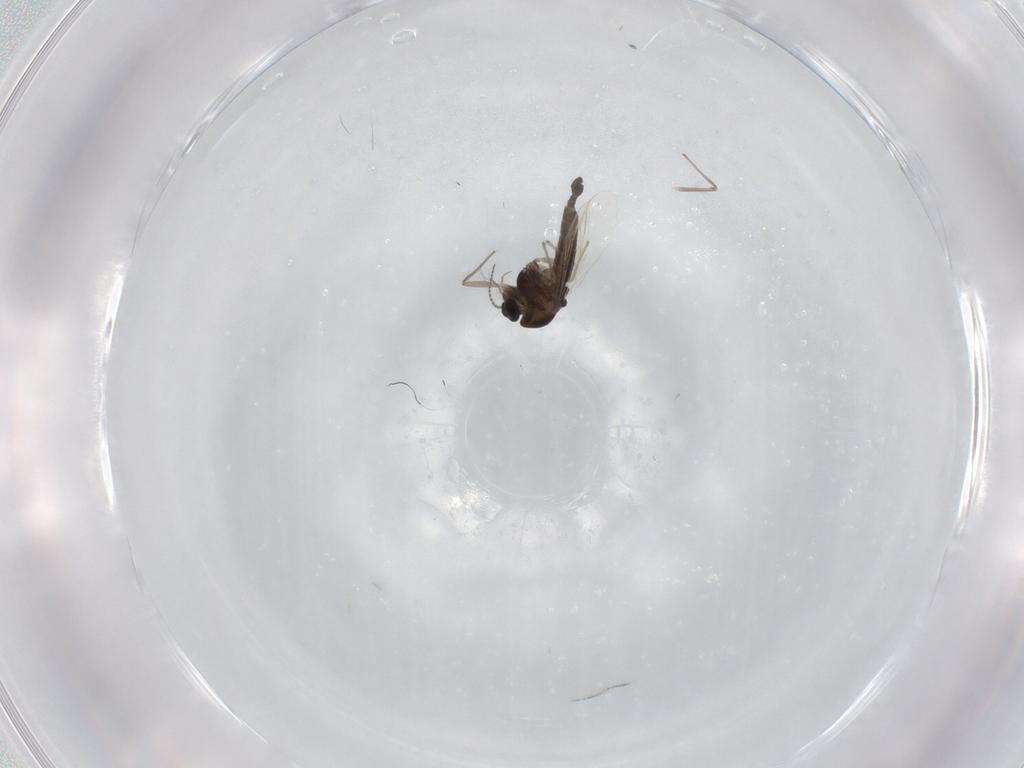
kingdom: Animalia
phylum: Arthropoda
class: Insecta
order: Diptera
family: Chironomidae
